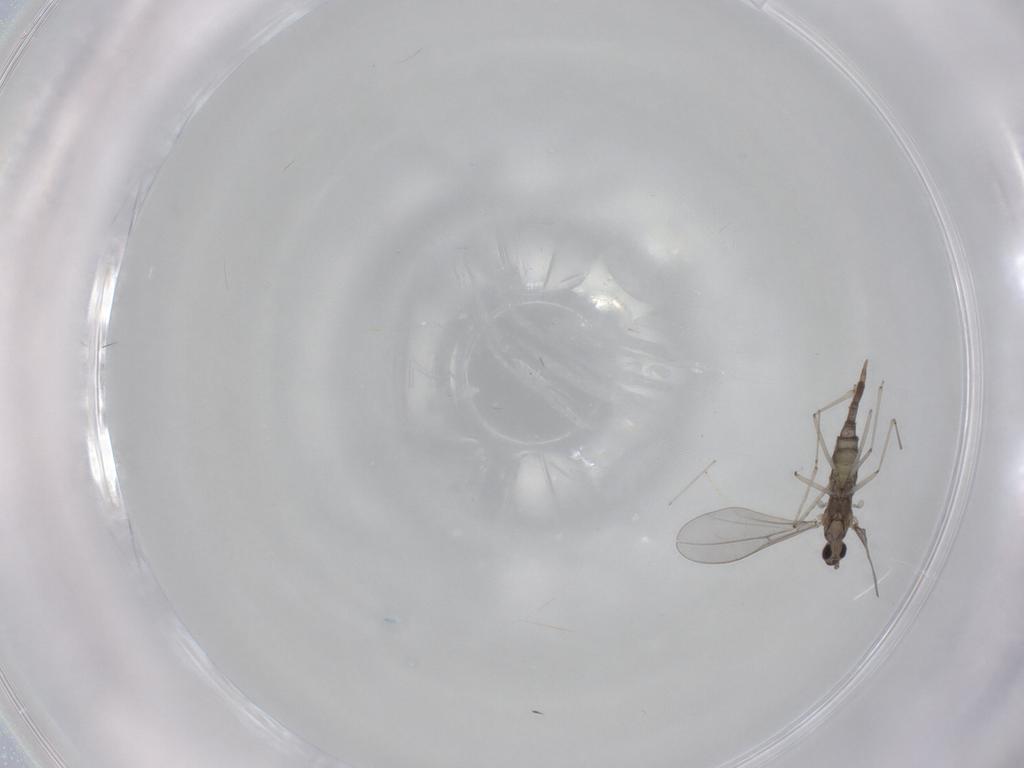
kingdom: Animalia
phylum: Arthropoda
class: Insecta
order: Diptera
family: Cecidomyiidae
